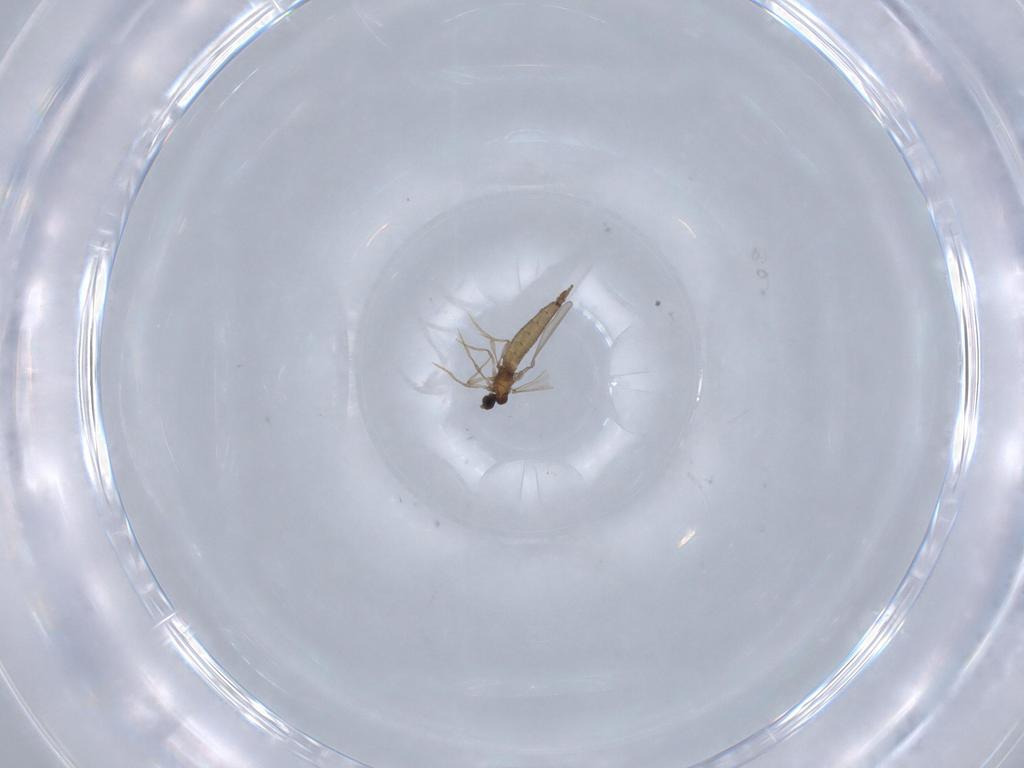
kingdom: Animalia
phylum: Arthropoda
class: Insecta
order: Diptera
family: Cecidomyiidae
